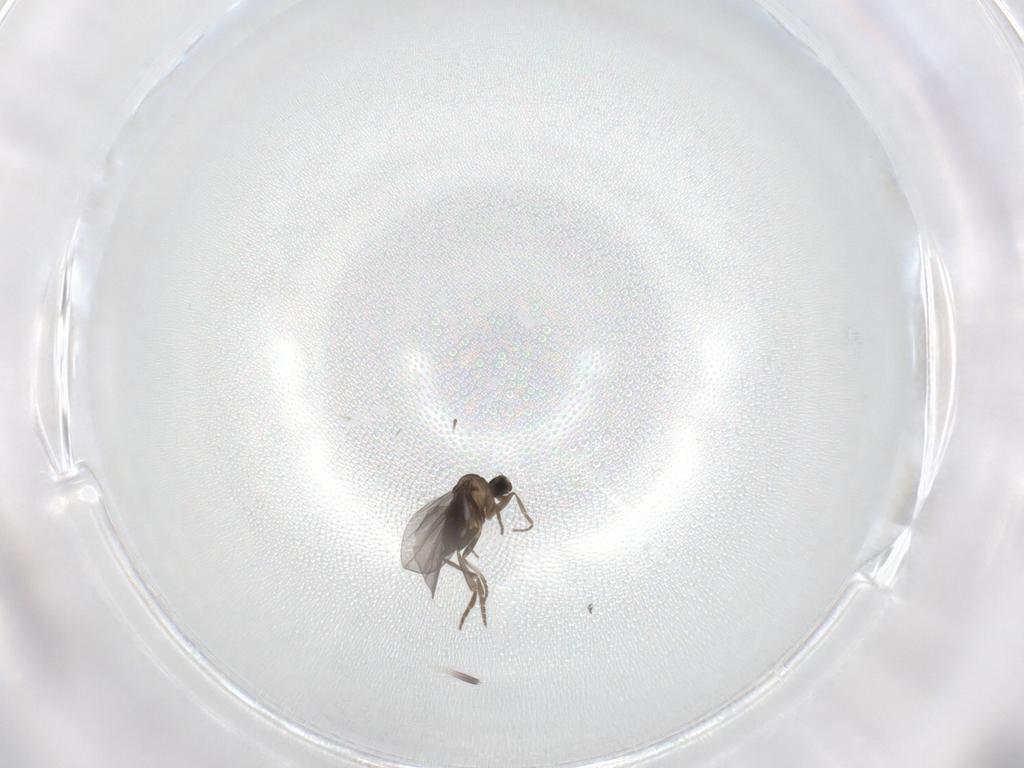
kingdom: Animalia
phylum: Arthropoda
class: Insecta
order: Diptera
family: Phoridae
